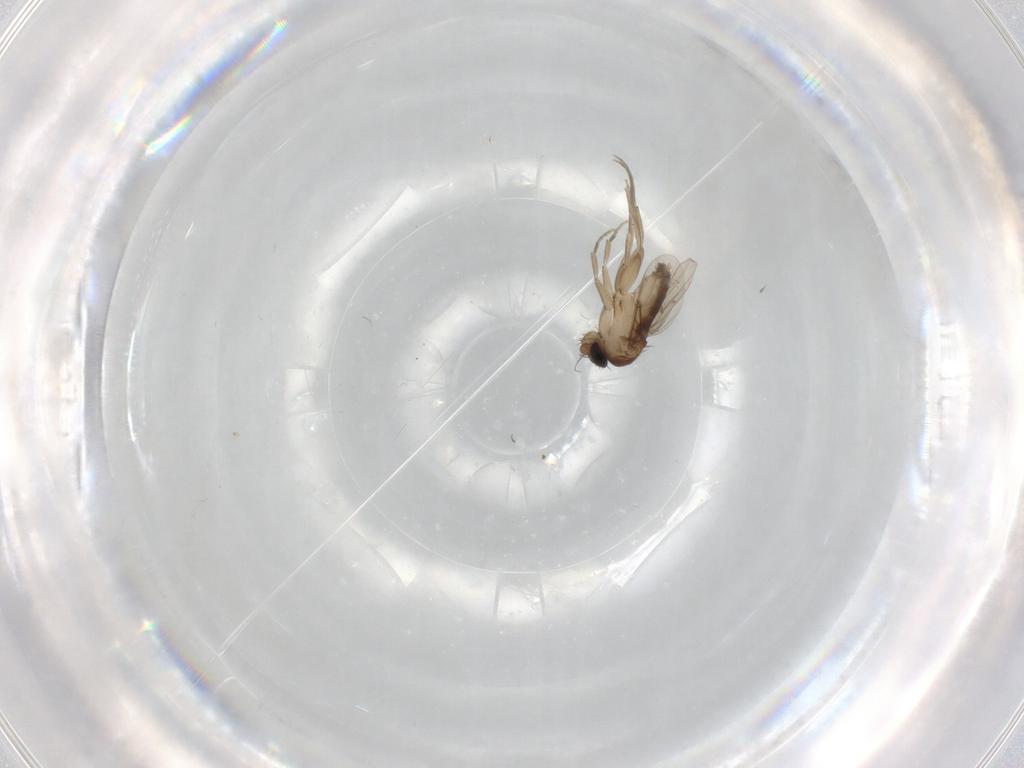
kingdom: Animalia
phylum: Arthropoda
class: Insecta
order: Diptera
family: Phoridae
